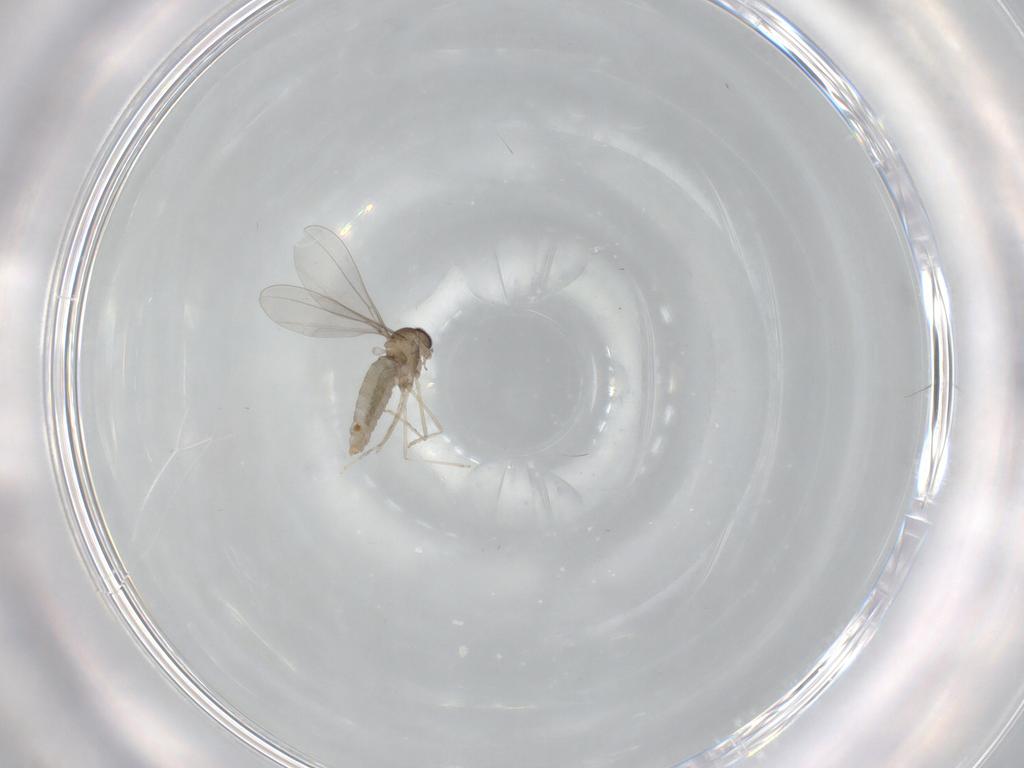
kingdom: Animalia
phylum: Arthropoda
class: Insecta
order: Diptera
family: Cecidomyiidae
